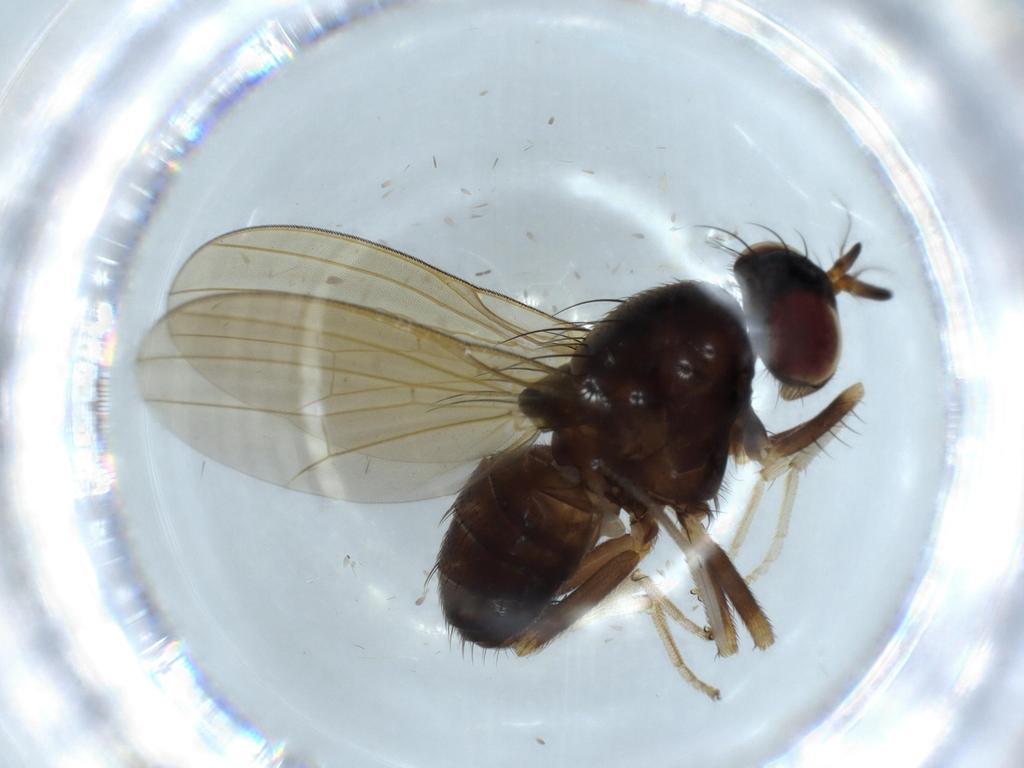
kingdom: Animalia
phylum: Arthropoda
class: Insecta
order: Diptera
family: Sciaridae
